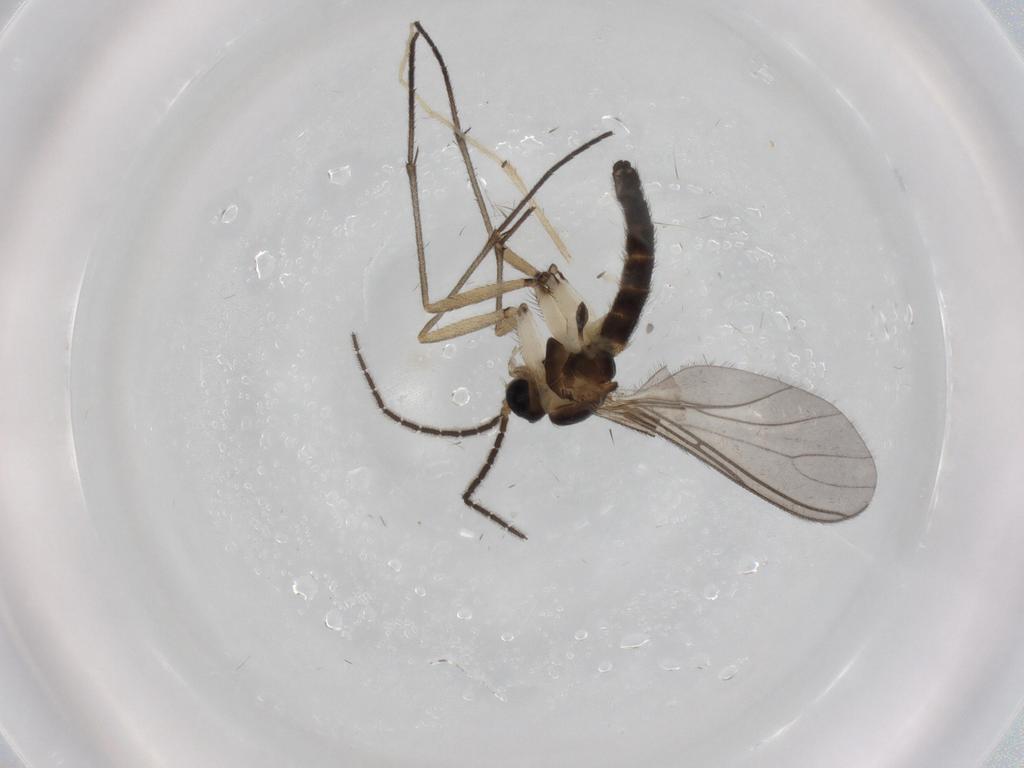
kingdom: Animalia
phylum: Arthropoda
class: Insecta
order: Diptera
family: Sciaridae
